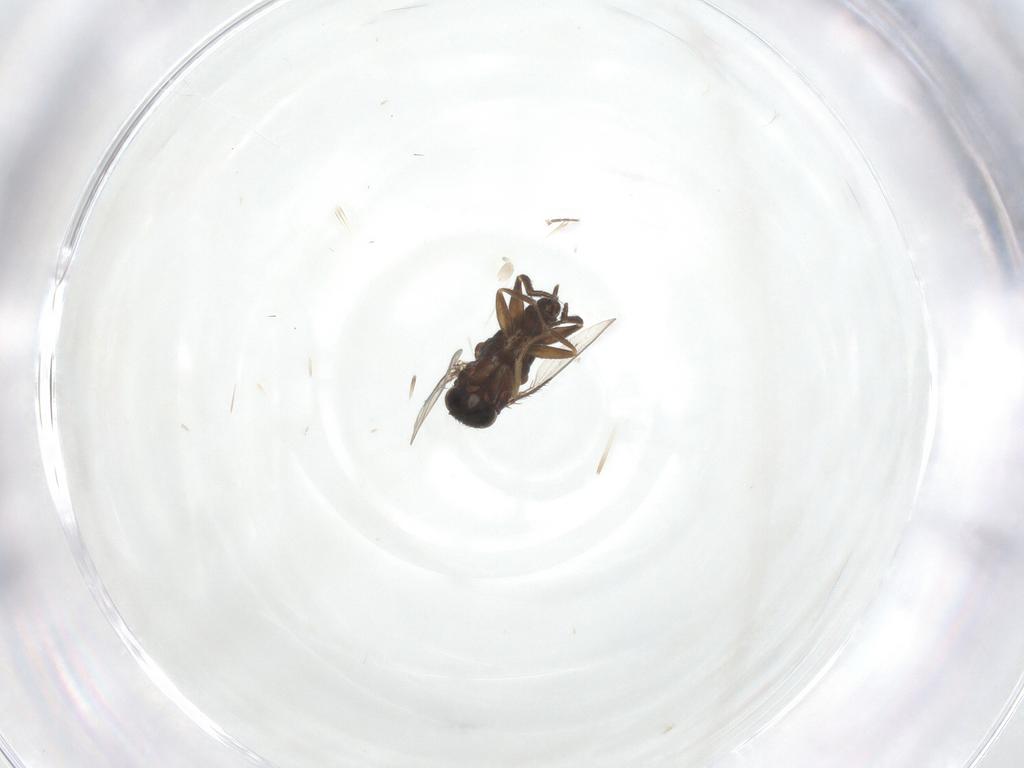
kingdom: Animalia
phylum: Arthropoda
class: Insecta
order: Diptera
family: Phoridae
